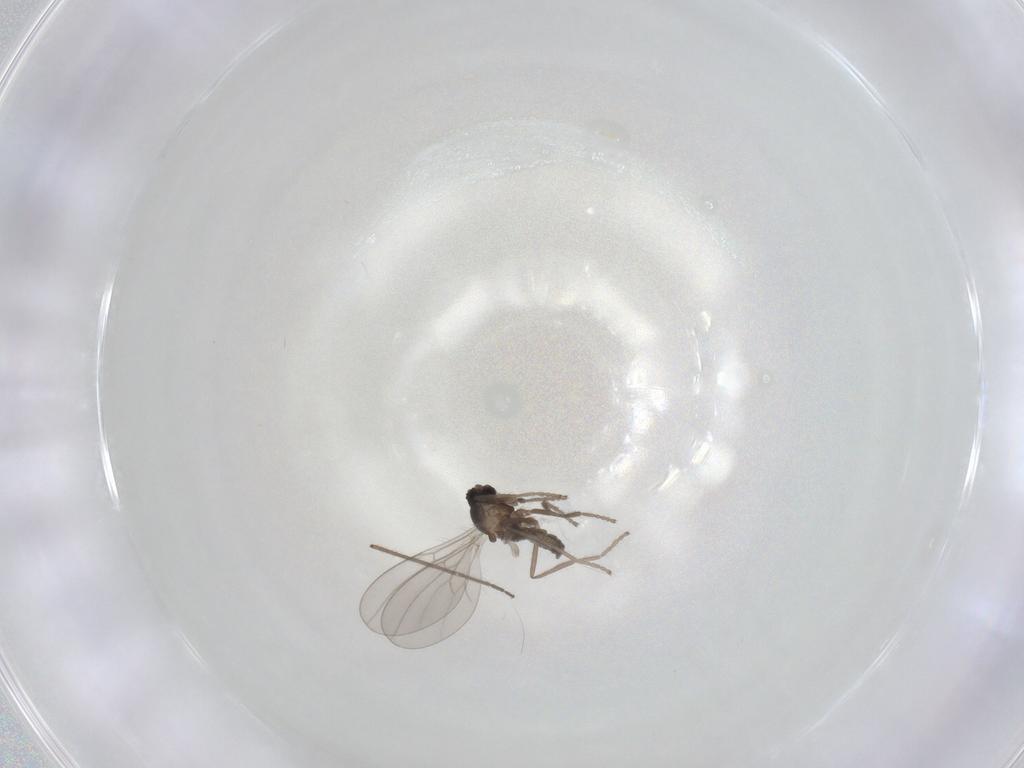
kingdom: Animalia
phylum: Arthropoda
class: Insecta
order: Diptera
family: Cecidomyiidae
